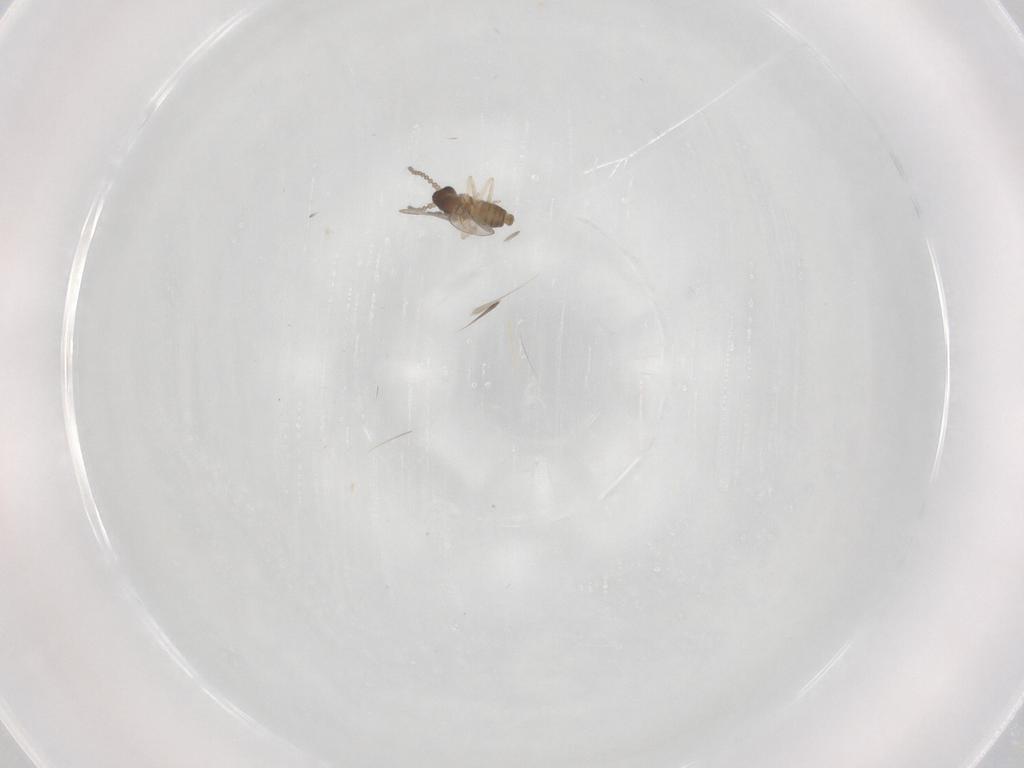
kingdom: Animalia
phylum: Arthropoda
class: Insecta
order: Diptera
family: Cecidomyiidae
